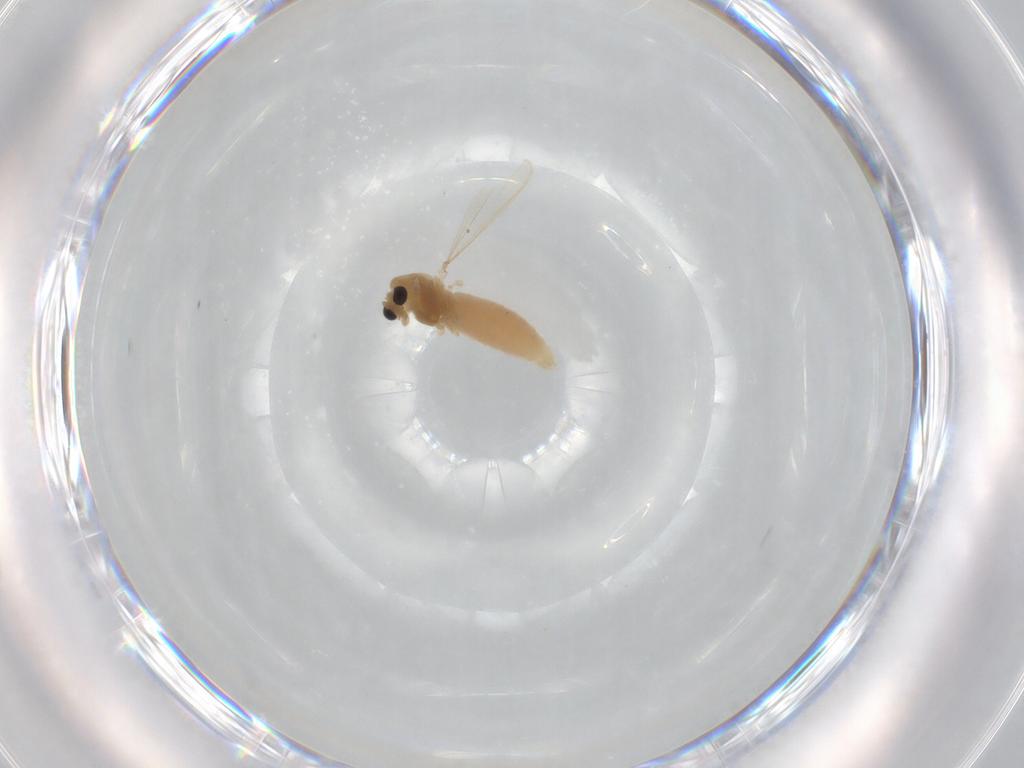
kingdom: Animalia
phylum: Arthropoda
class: Insecta
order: Diptera
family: Chironomidae
